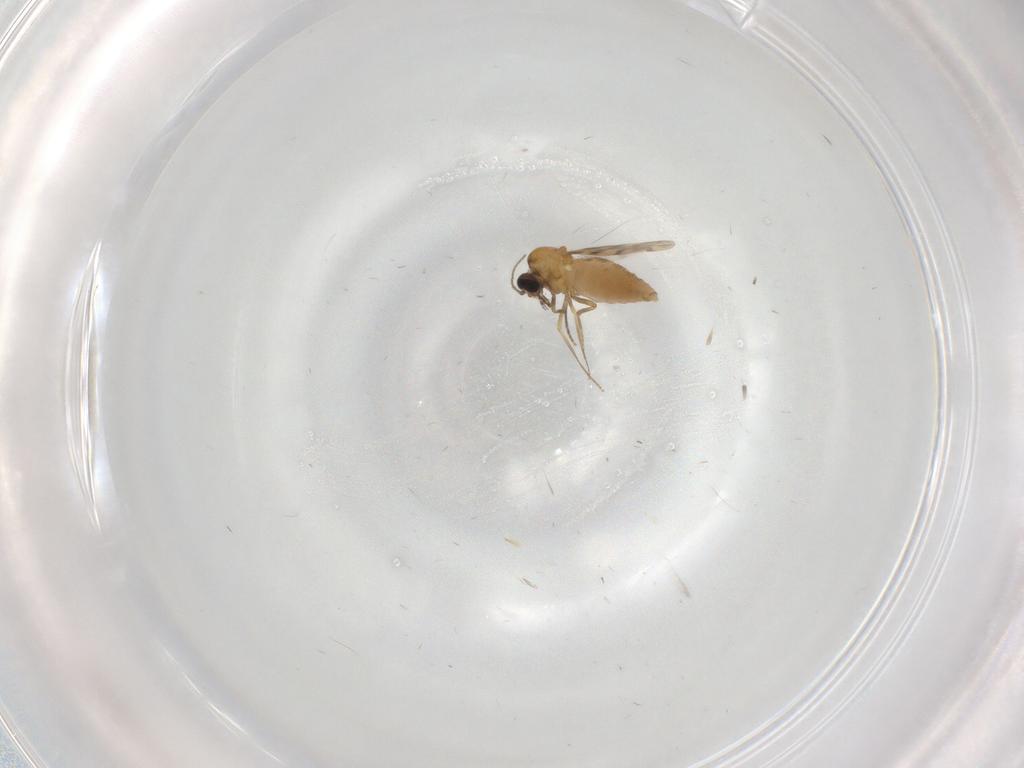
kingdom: Animalia
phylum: Arthropoda
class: Insecta
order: Diptera
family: Ceratopogonidae
